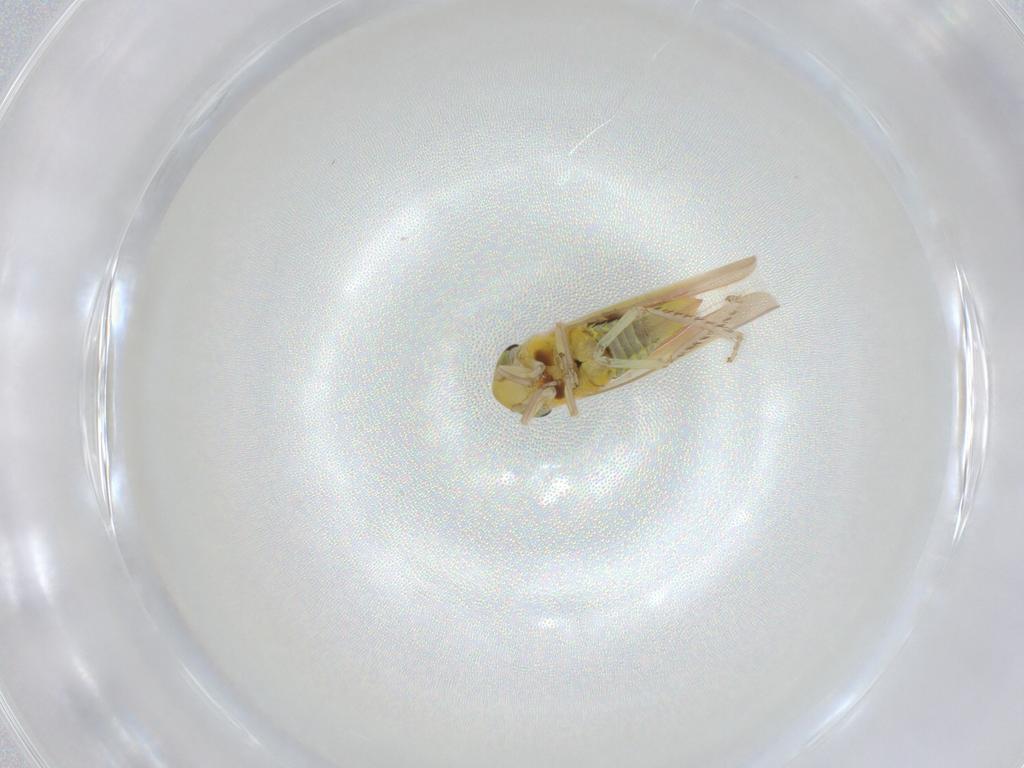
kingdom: Animalia
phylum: Arthropoda
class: Insecta
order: Hemiptera
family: Cicadellidae
